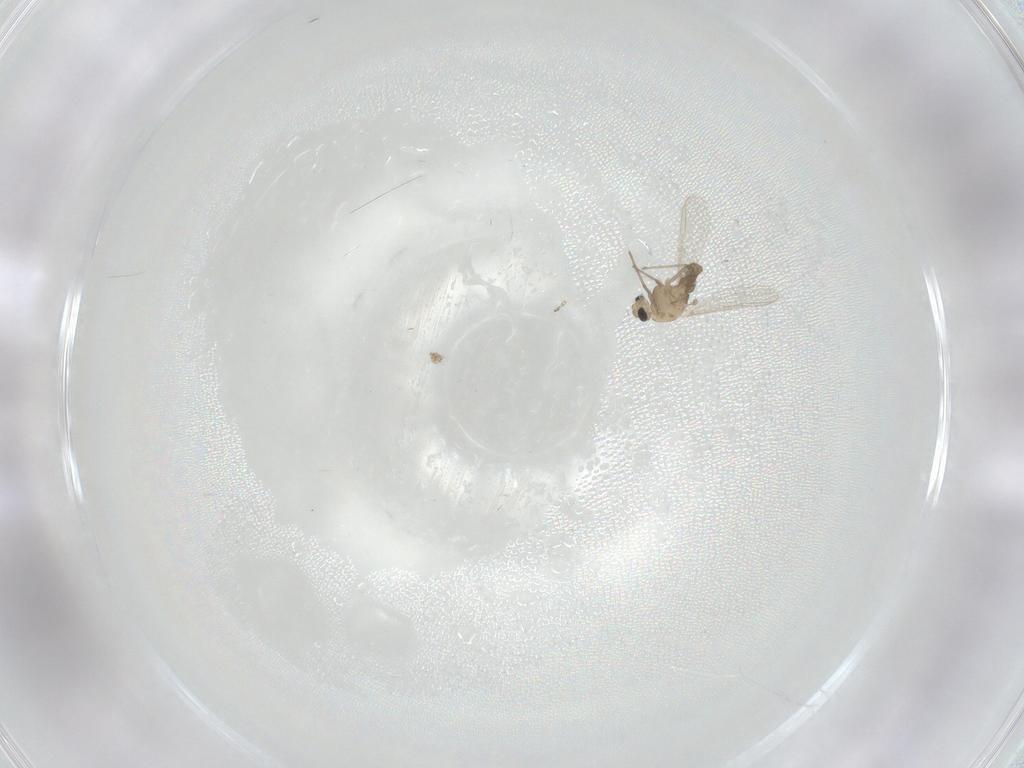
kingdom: Animalia
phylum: Arthropoda
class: Insecta
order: Diptera
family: Chironomidae
